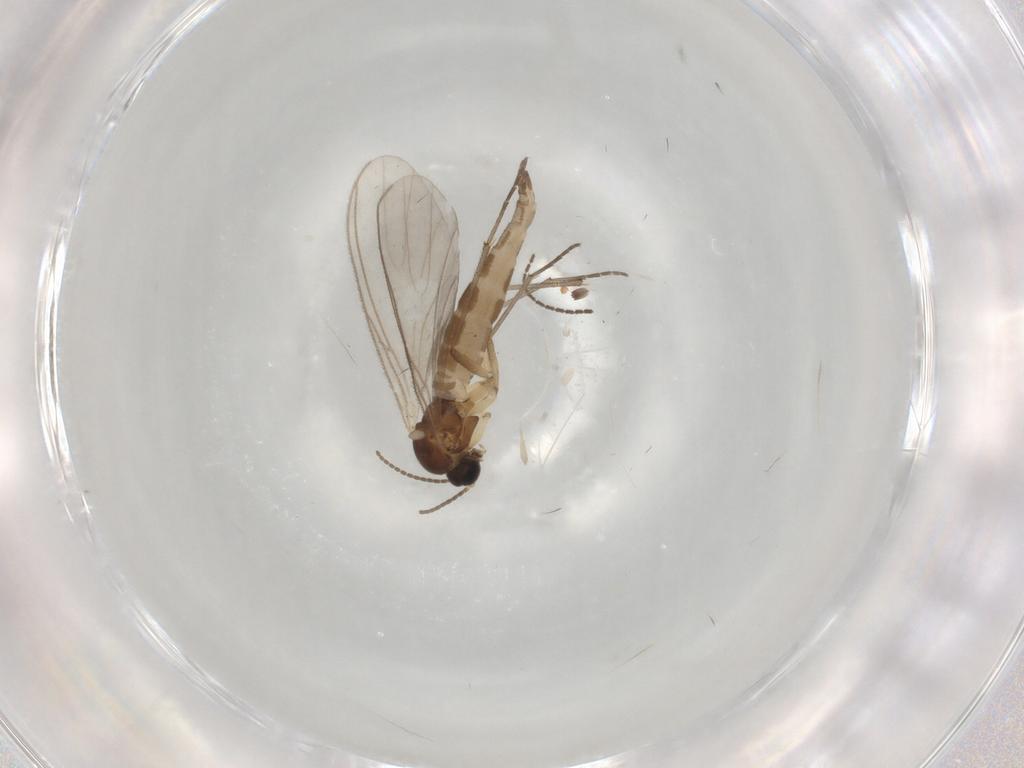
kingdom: Animalia
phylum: Arthropoda
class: Insecta
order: Diptera
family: Sciaridae
